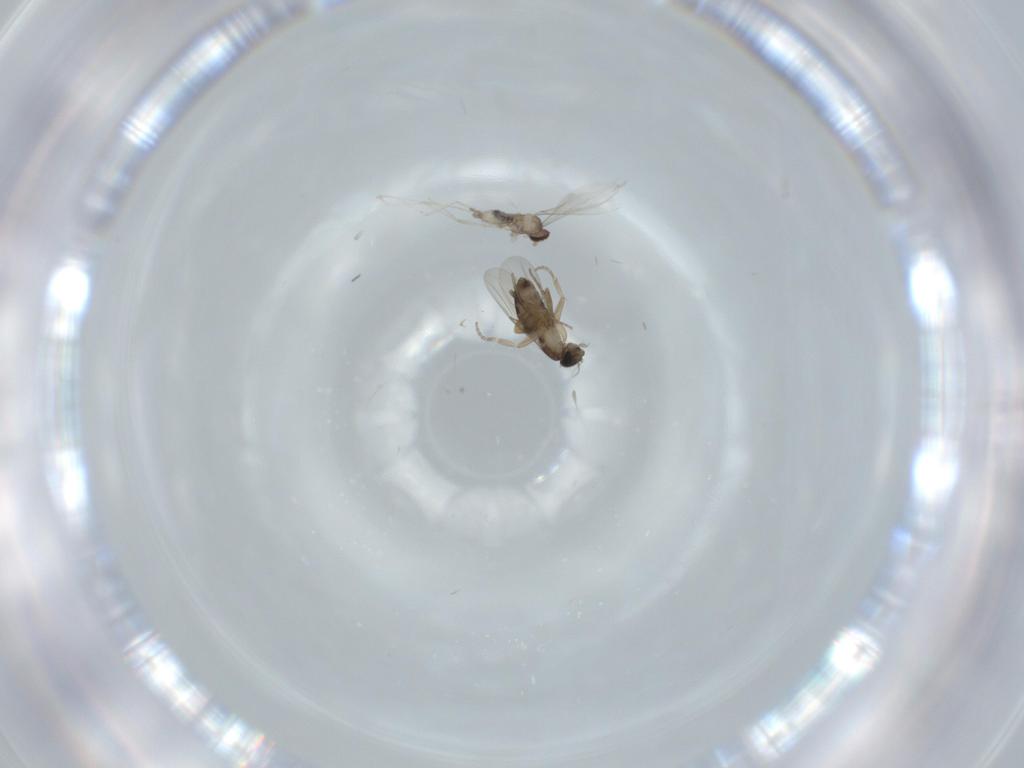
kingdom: Animalia
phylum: Arthropoda
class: Insecta
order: Diptera
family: Phoridae
